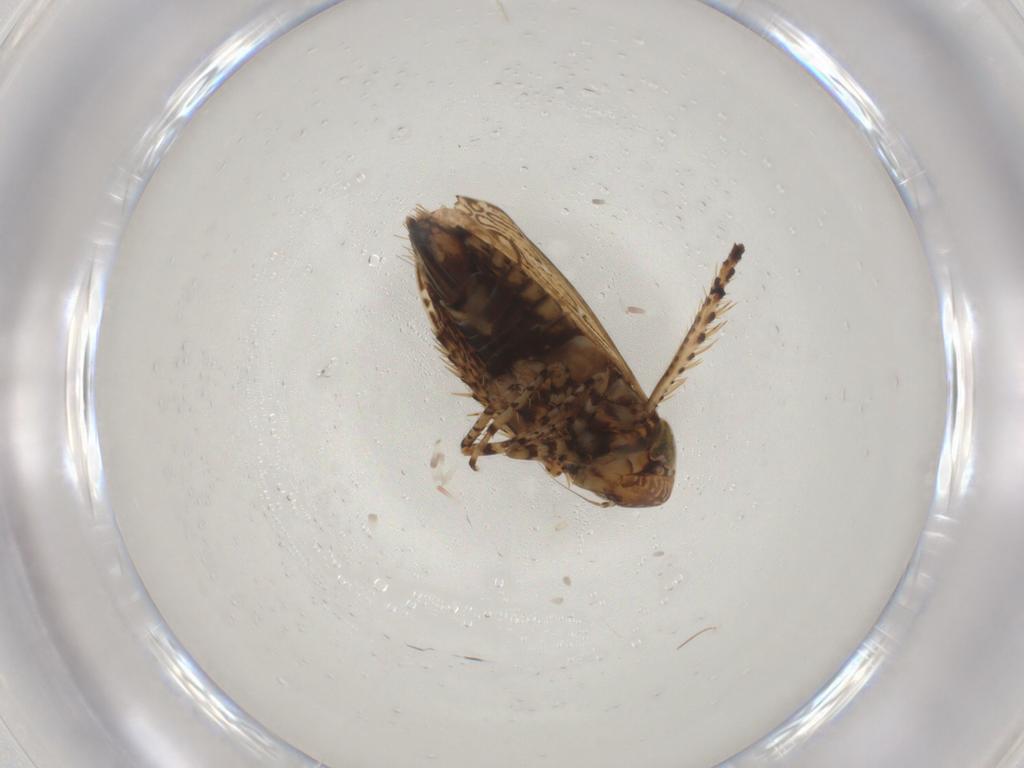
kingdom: Animalia
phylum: Arthropoda
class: Insecta
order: Hemiptera
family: Cicadellidae
